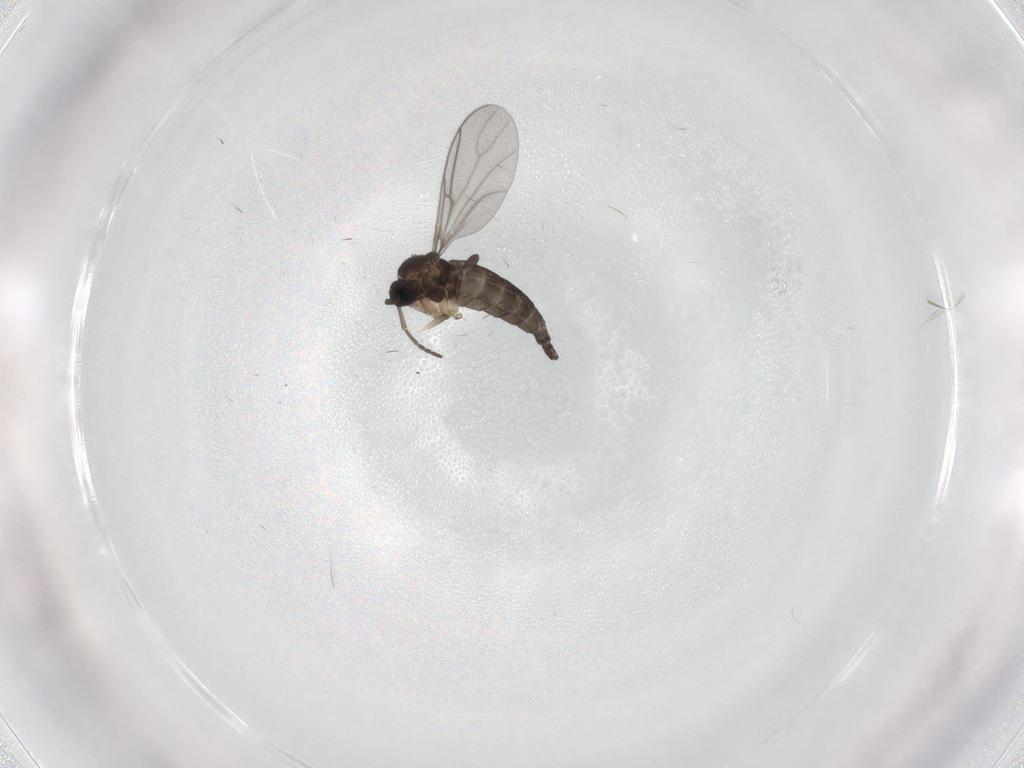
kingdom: Animalia
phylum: Arthropoda
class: Insecta
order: Diptera
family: Sciaridae
